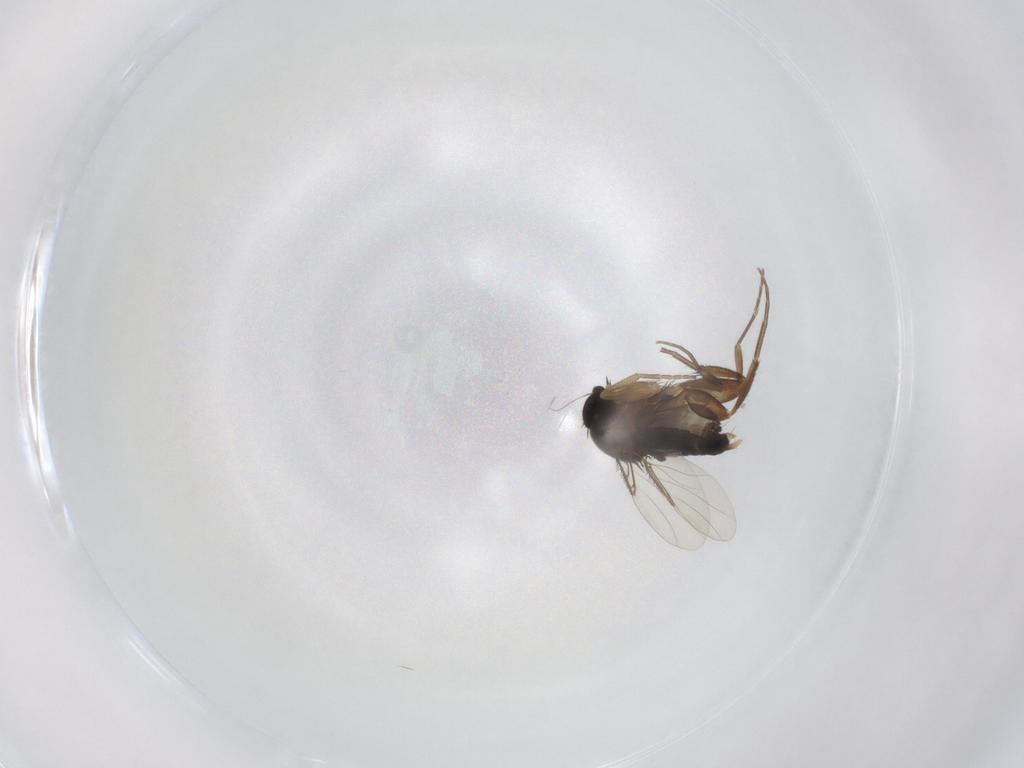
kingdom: Animalia
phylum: Arthropoda
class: Insecta
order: Diptera
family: Phoridae
